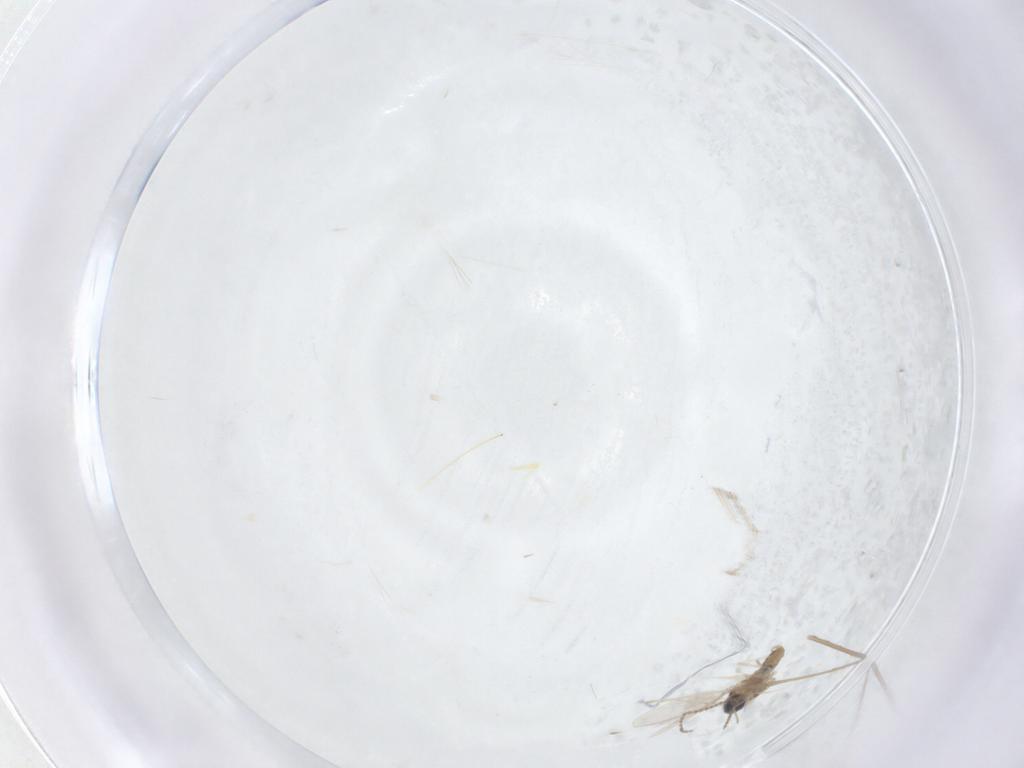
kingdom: Animalia
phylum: Arthropoda
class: Insecta
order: Diptera
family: Cecidomyiidae
